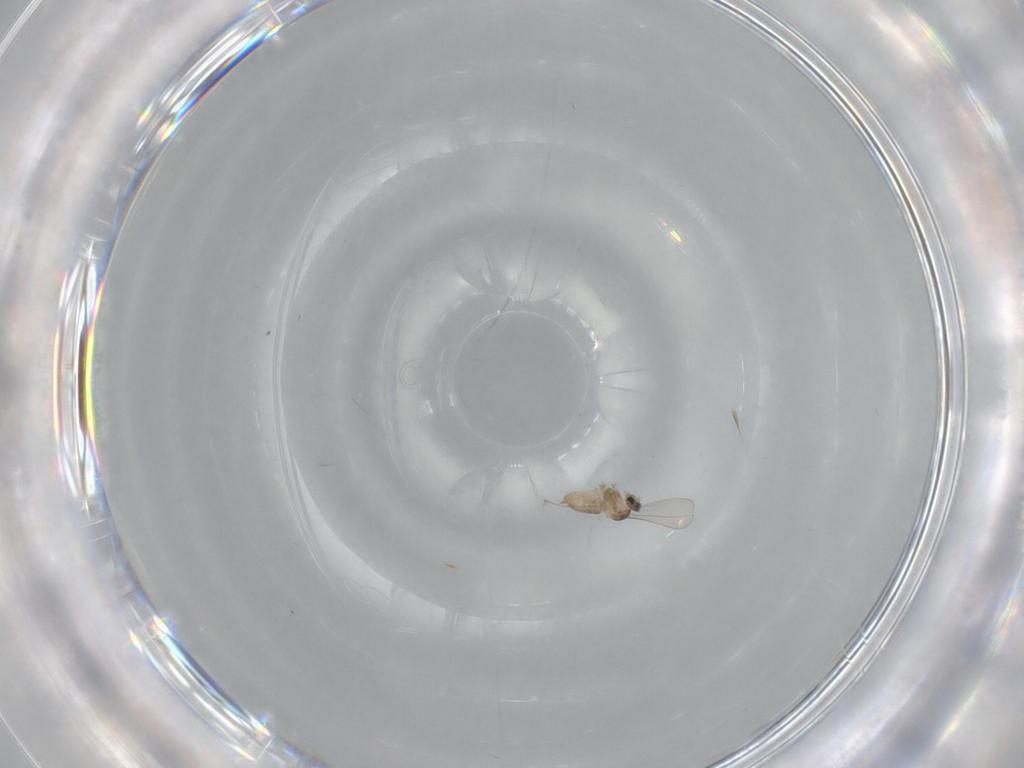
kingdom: Animalia
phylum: Arthropoda
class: Insecta
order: Diptera
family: Cecidomyiidae
